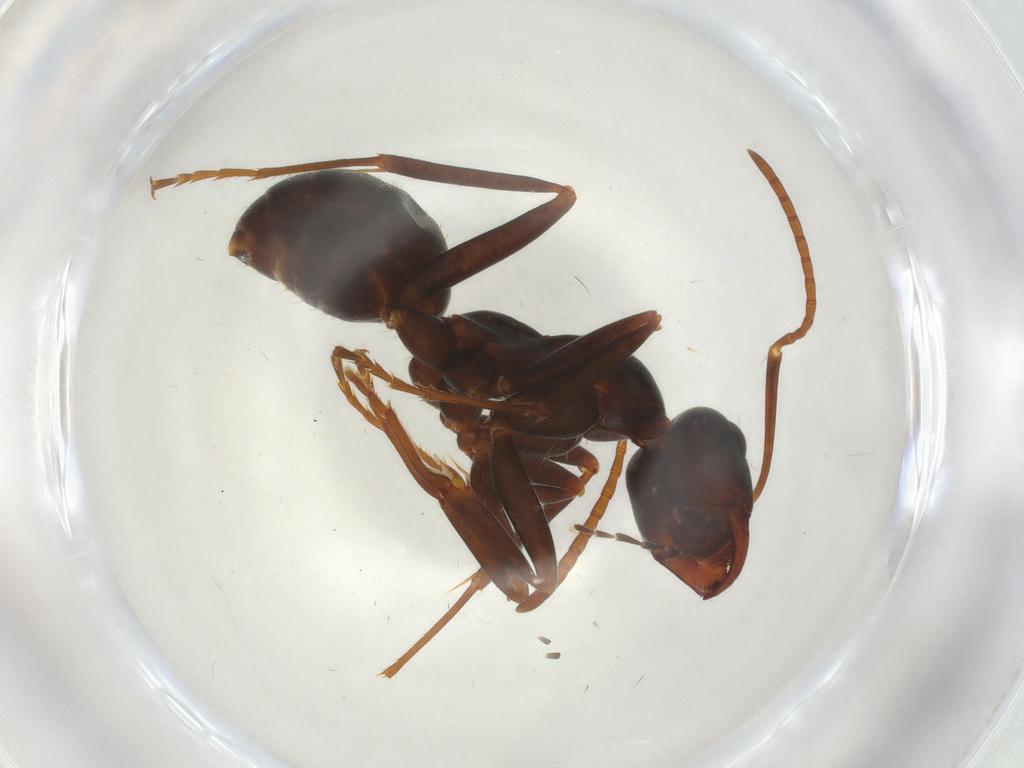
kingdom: Animalia
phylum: Arthropoda
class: Insecta
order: Hymenoptera
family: Formicidae
